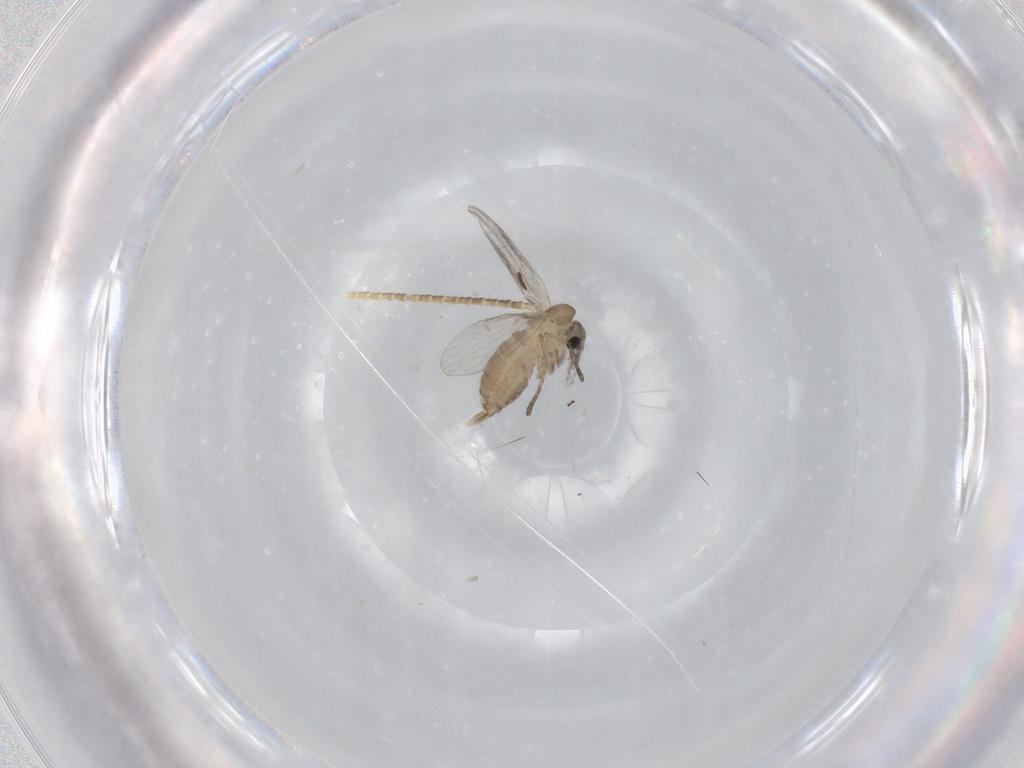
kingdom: Animalia
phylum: Arthropoda
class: Insecta
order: Diptera
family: Phoridae
